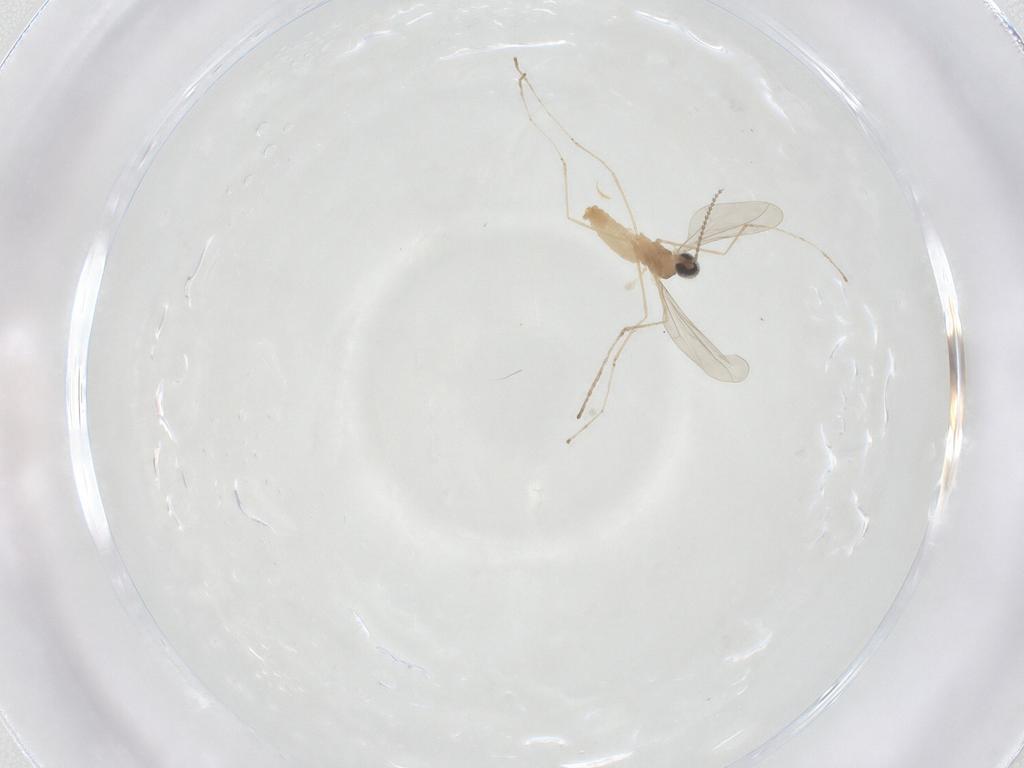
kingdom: Animalia
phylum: Arthropoda
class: Insecta
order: Diptera
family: Cecidomyiidae
